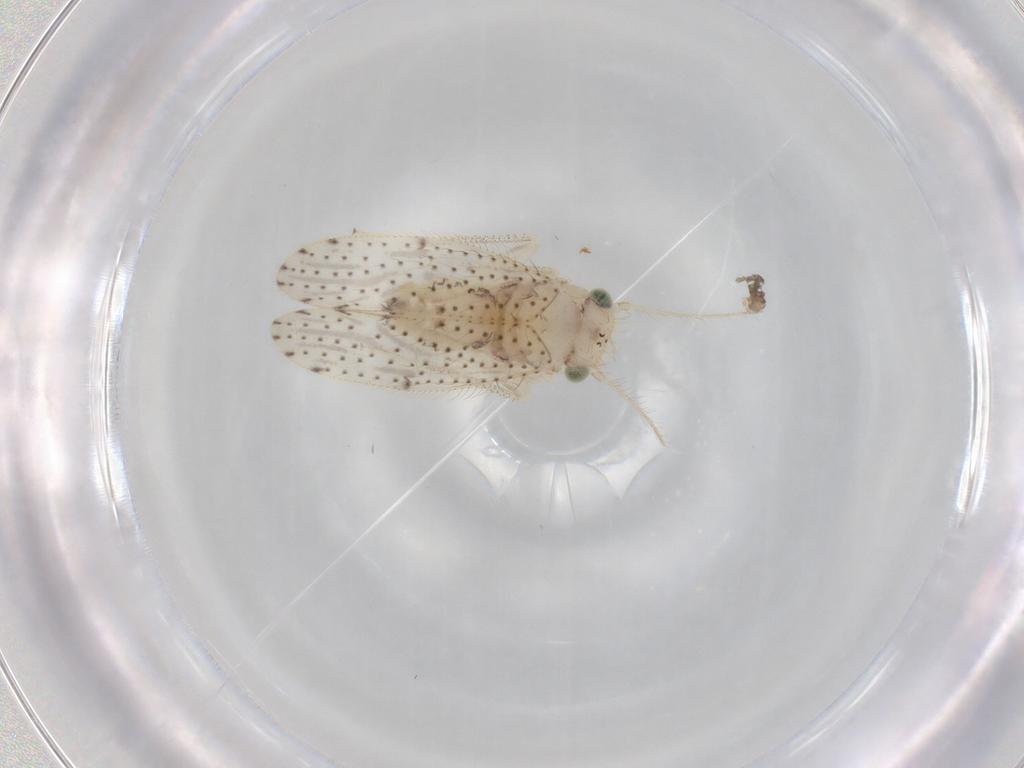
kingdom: Animalia
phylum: Arthropoda
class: Insecta
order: Psocodea
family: Myopsocidae
